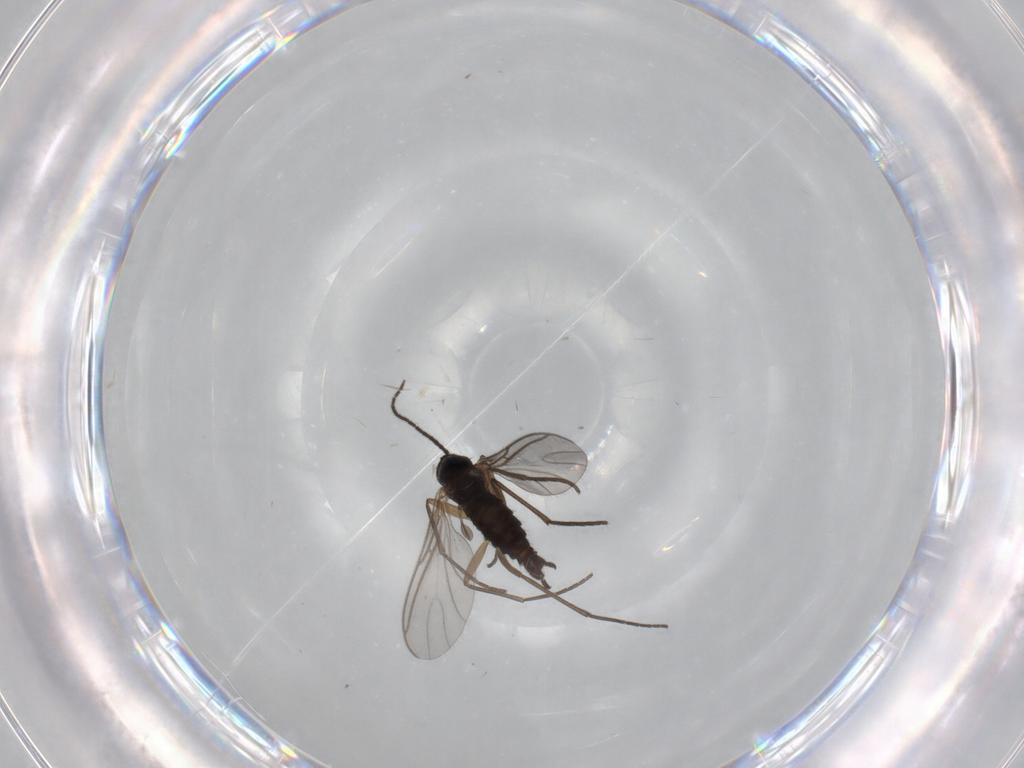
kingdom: Animalia
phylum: Arthropoda
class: Insecta
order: Diptera
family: Sciaridae
